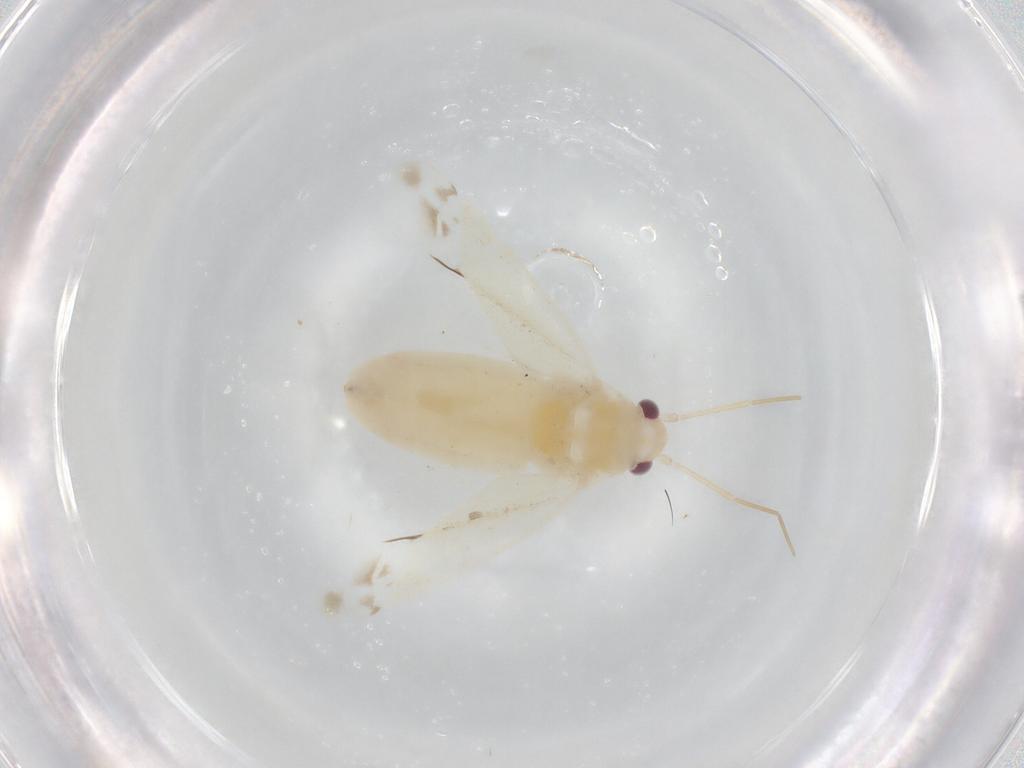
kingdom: Animalia
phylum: Arthropoda
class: Insecta
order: Hemiptera
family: Miridae
